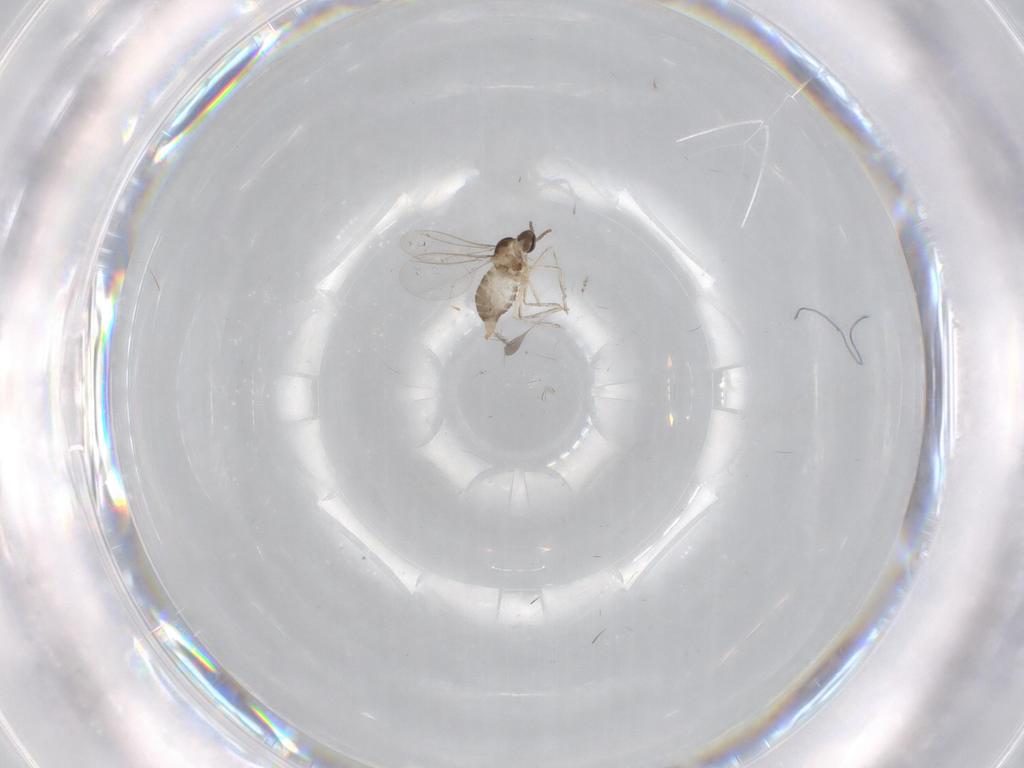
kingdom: Animalia
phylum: Arthropoda
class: Insecta
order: Diptera
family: Cecidomyiidae
